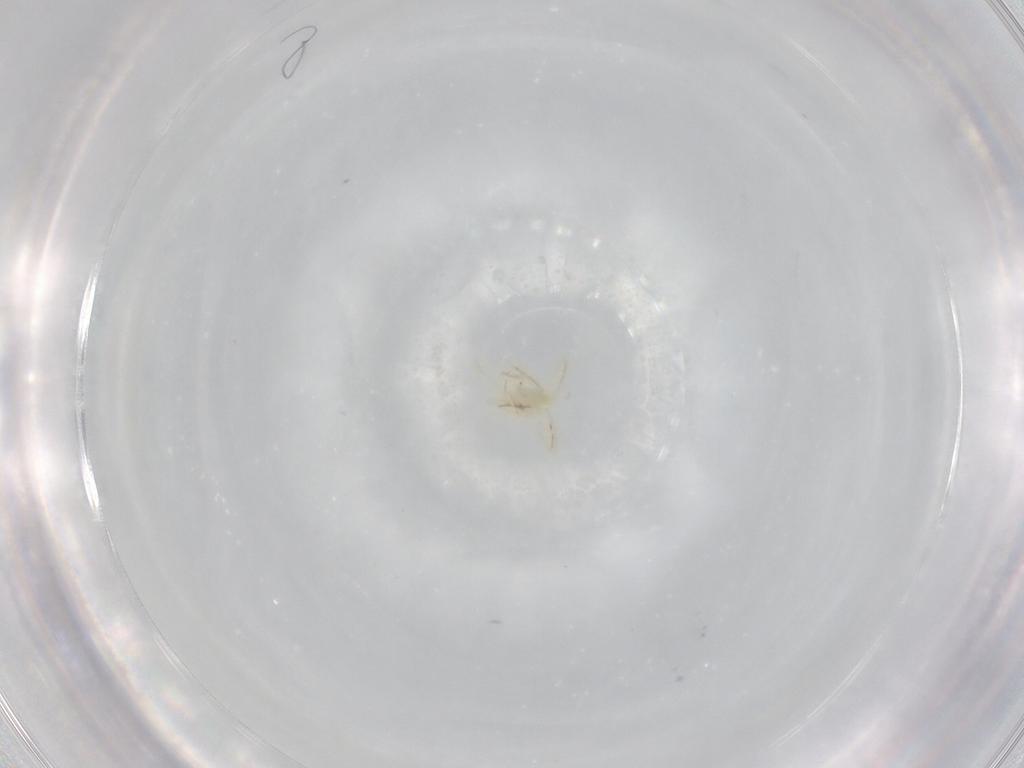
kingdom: Animalia
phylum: Arthropoda
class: Insecta
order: Hemiptera
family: Aleyrodidae
